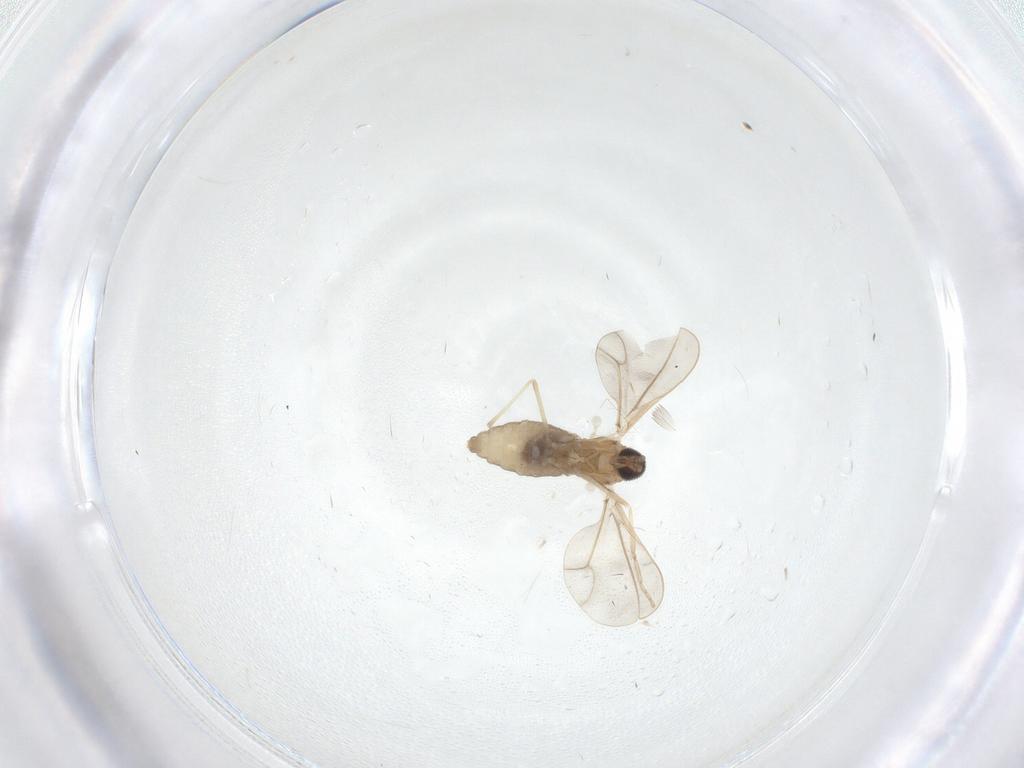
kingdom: Animalia
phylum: Arthropoda
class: Insecta
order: Diptera
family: Cecidomyiidae
